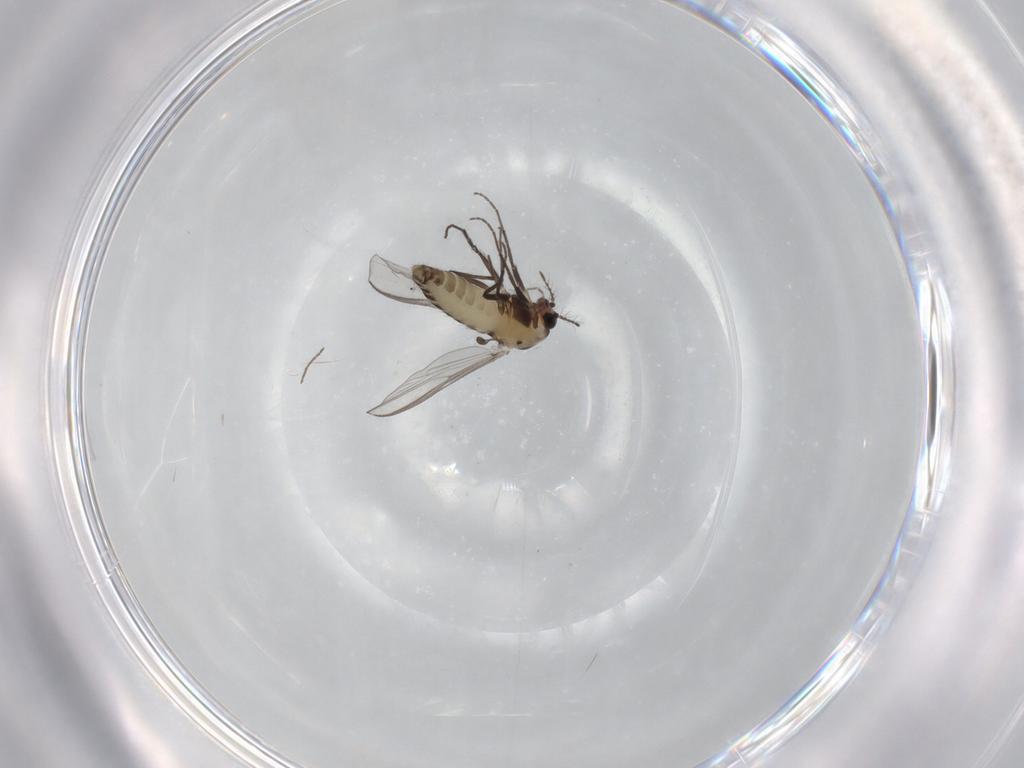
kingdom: Animalia
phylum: Arthropoda
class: Insecta
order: Diptera
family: Chironomidae
